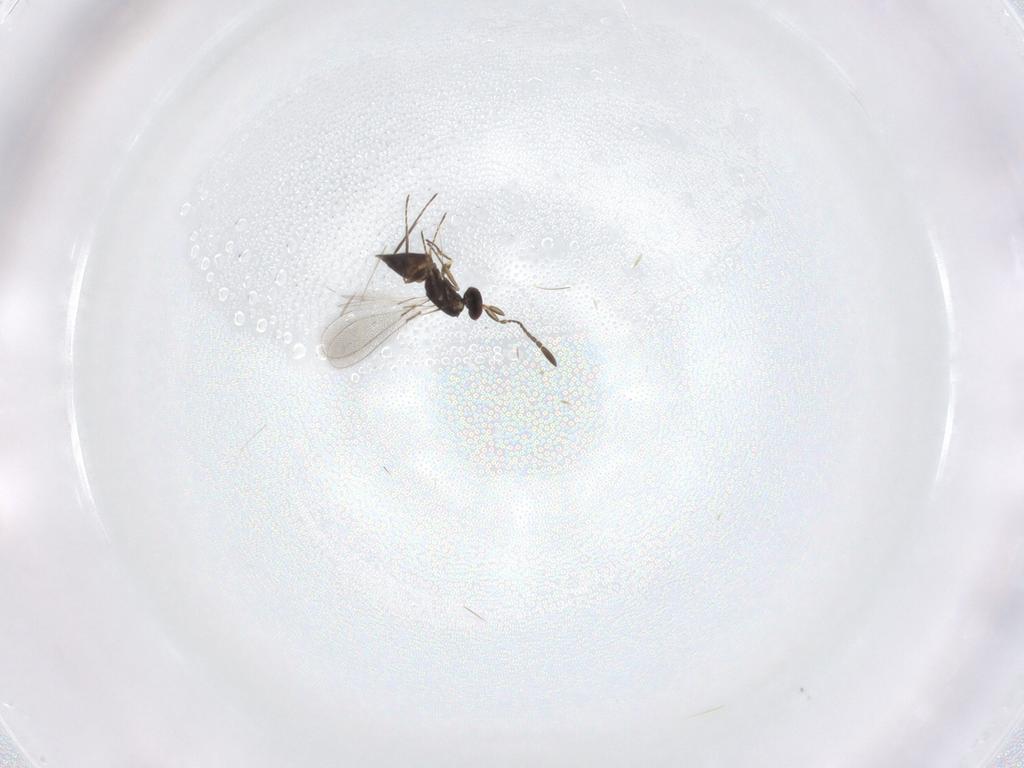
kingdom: Animalia
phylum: Arthropoda
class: Insecta
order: Hymenoptera
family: Mymaridae
